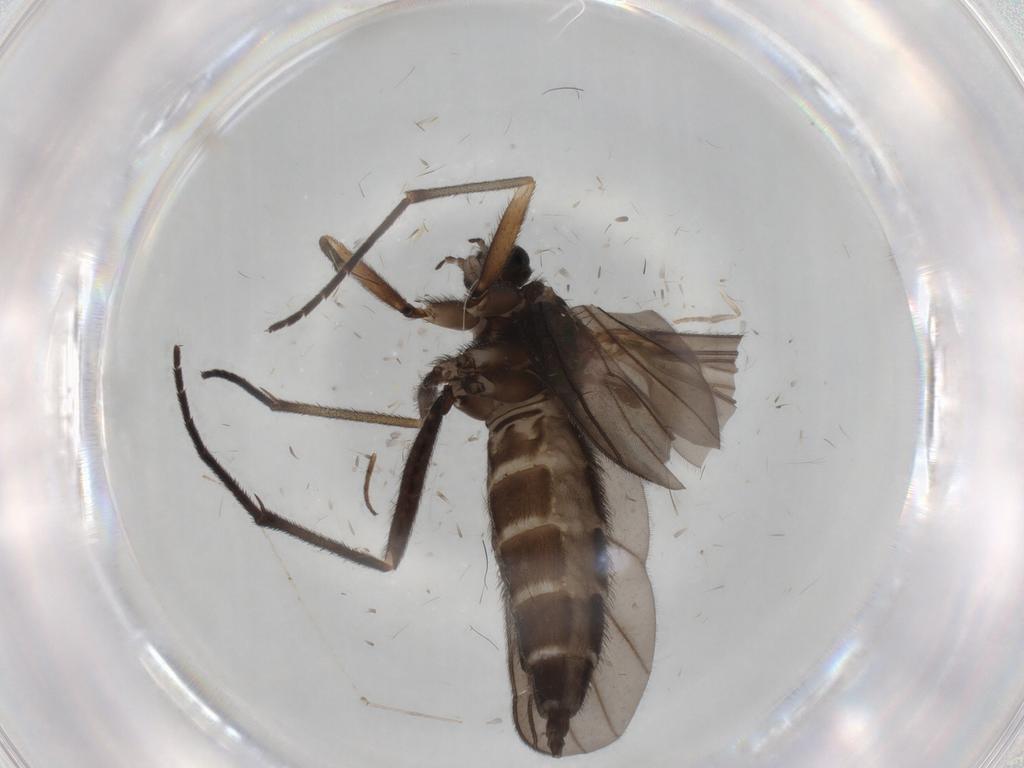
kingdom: Animalia
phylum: Arthropoda
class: Insecta
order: Diptera
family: Sciaridae
